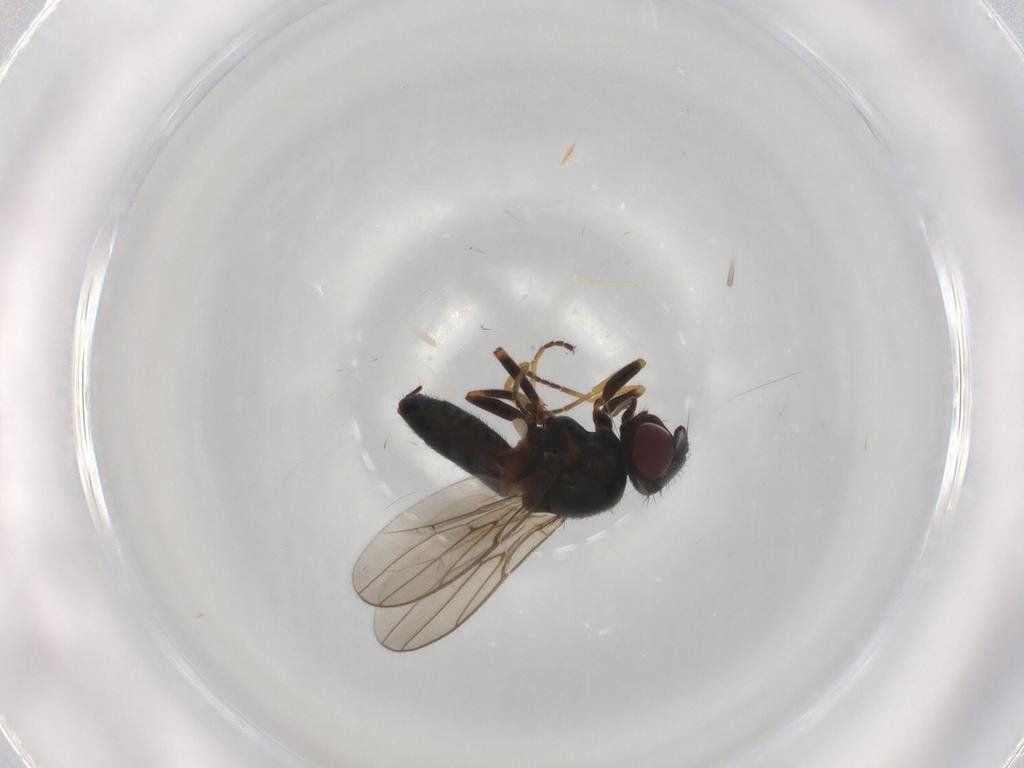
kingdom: Animalia
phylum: Arthropoda
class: Insecta
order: Diptera
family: Chloropidae
